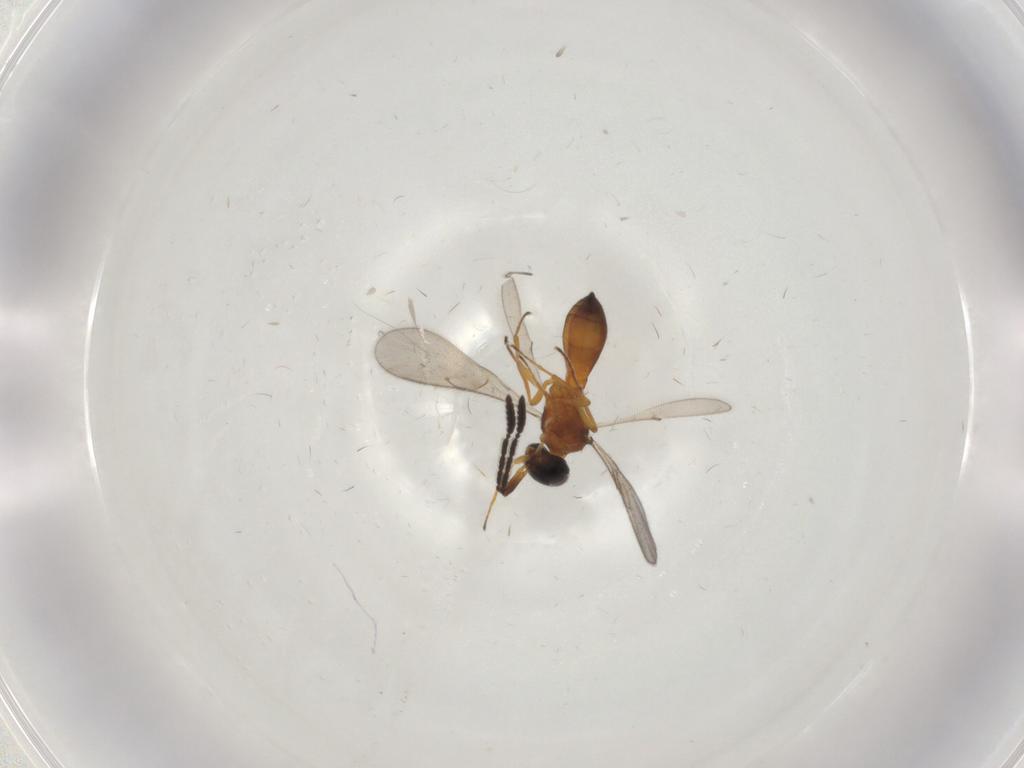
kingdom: Animalia
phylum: Arthropoda
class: Insecta
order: Hymenoptera
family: Scelionidae
